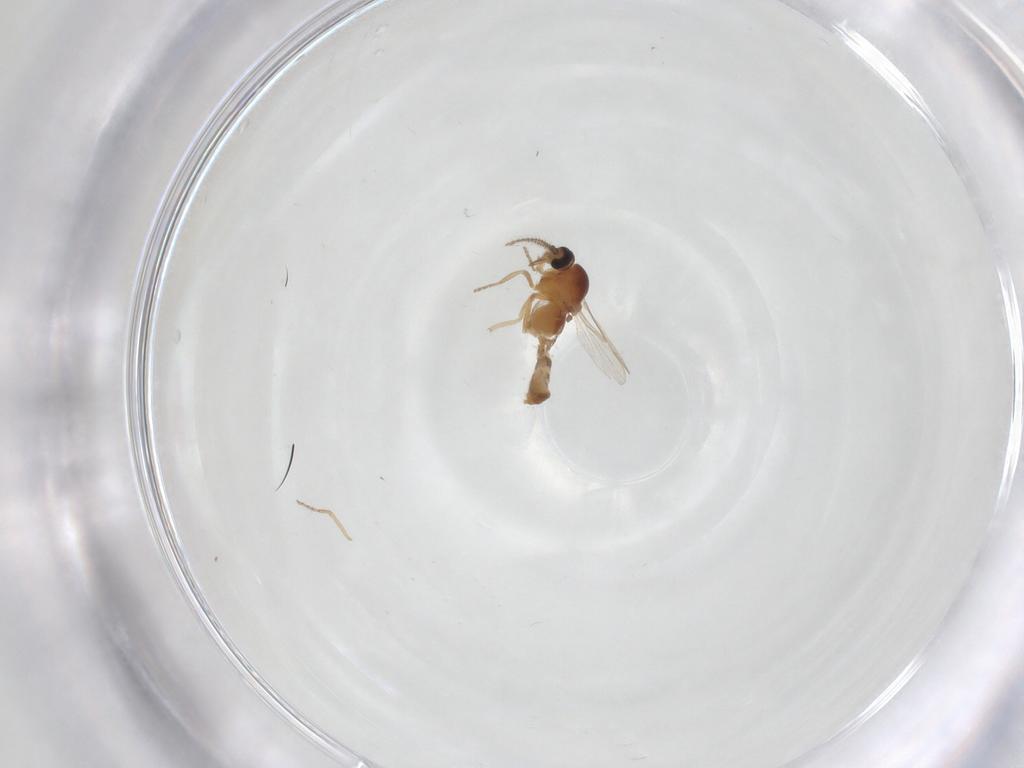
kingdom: Animalia
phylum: Arthropoda
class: Insecta
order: Diptera
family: Ceratopogonidae
